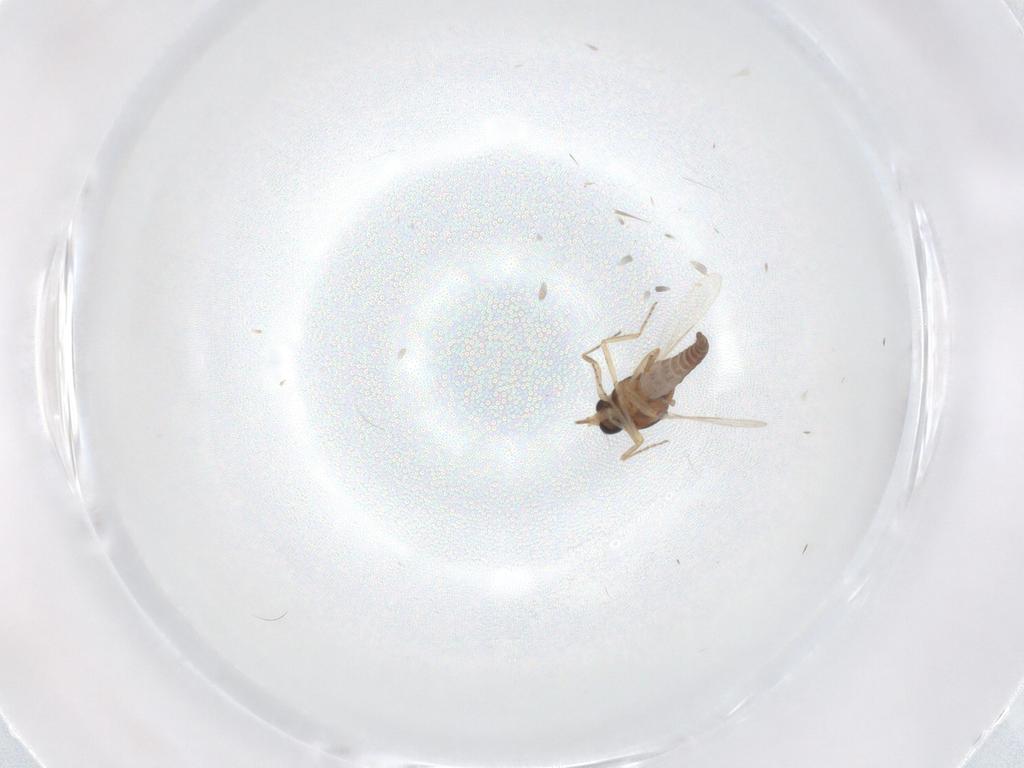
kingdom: Animalia
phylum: Arthropoda
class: Insecta
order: Diptera
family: Ceratopogonidae
